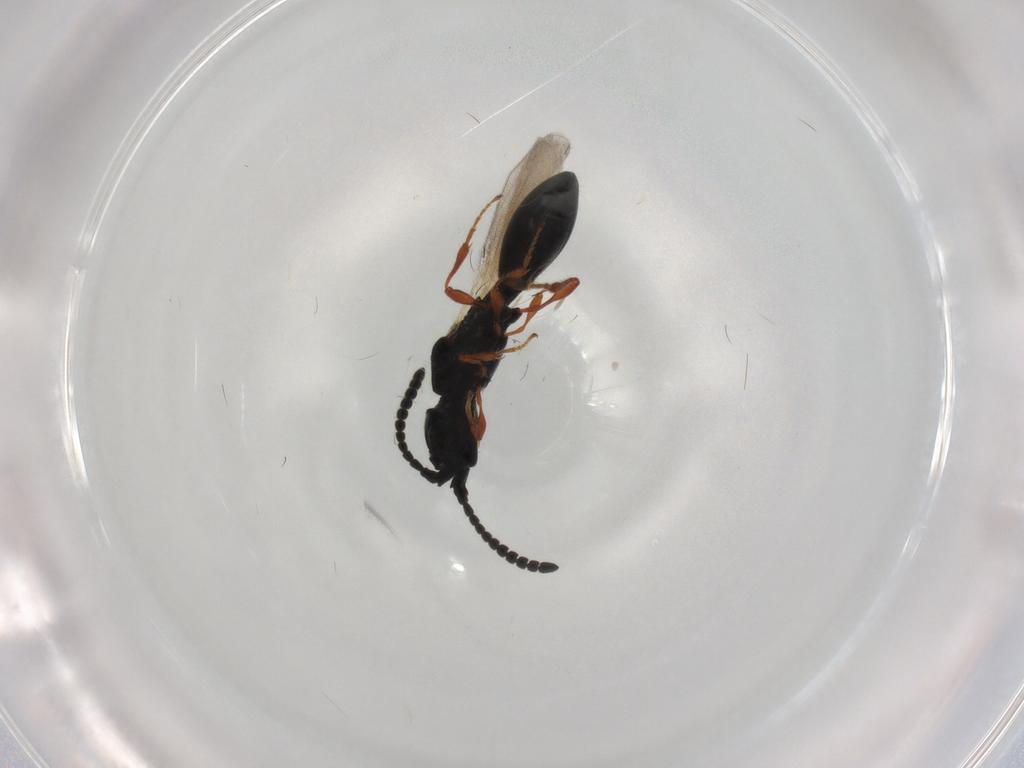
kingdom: Animalia
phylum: Arthropoda
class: Insecta
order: Hymenoptera
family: Diapriidae
